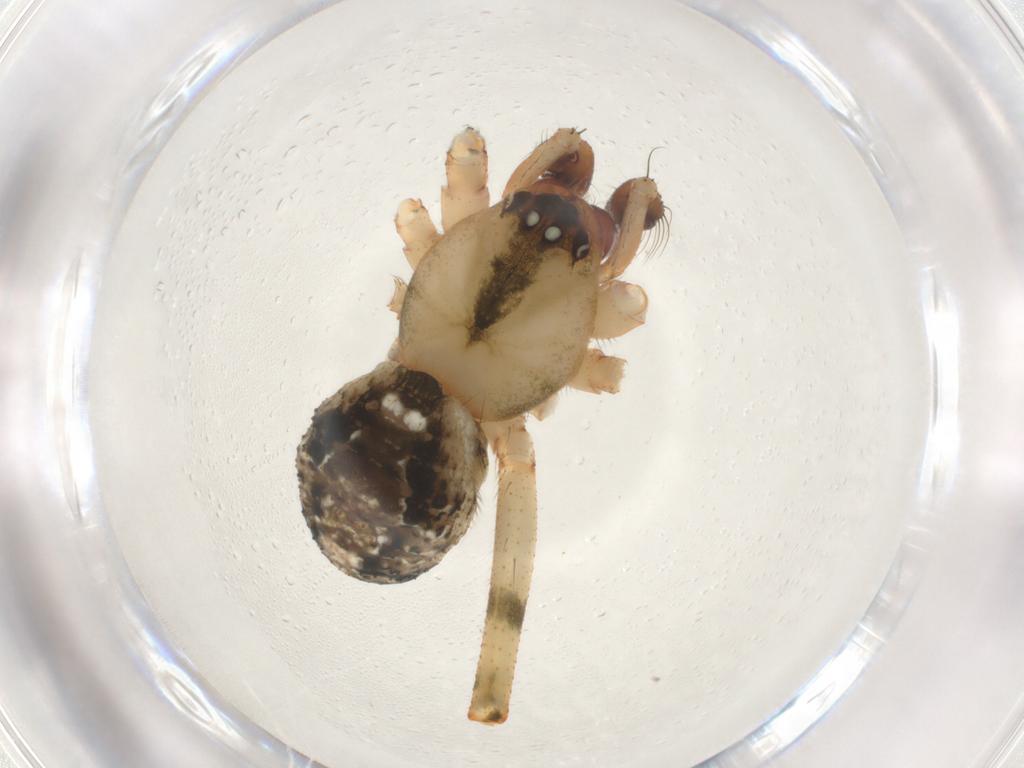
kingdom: Animalia
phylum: Arthropoda
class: Arachnida
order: Araneae
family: Theridiidae
